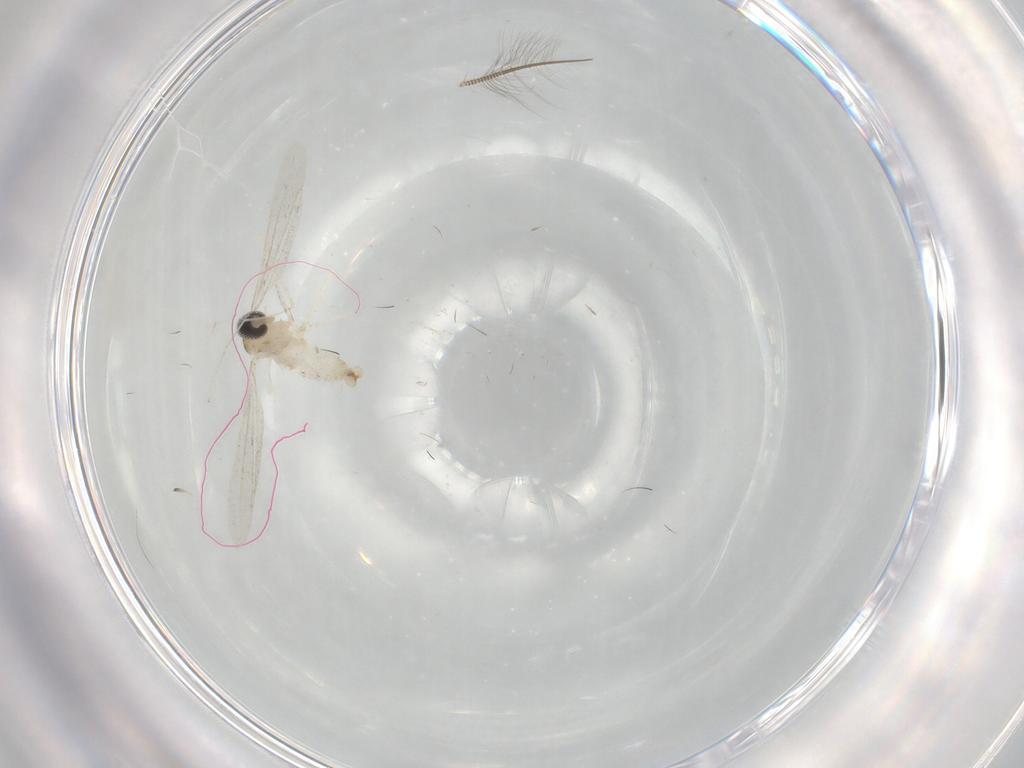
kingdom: Animalia
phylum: Arthropoda
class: Insecta
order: Diptera
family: Cecidomyiidae
